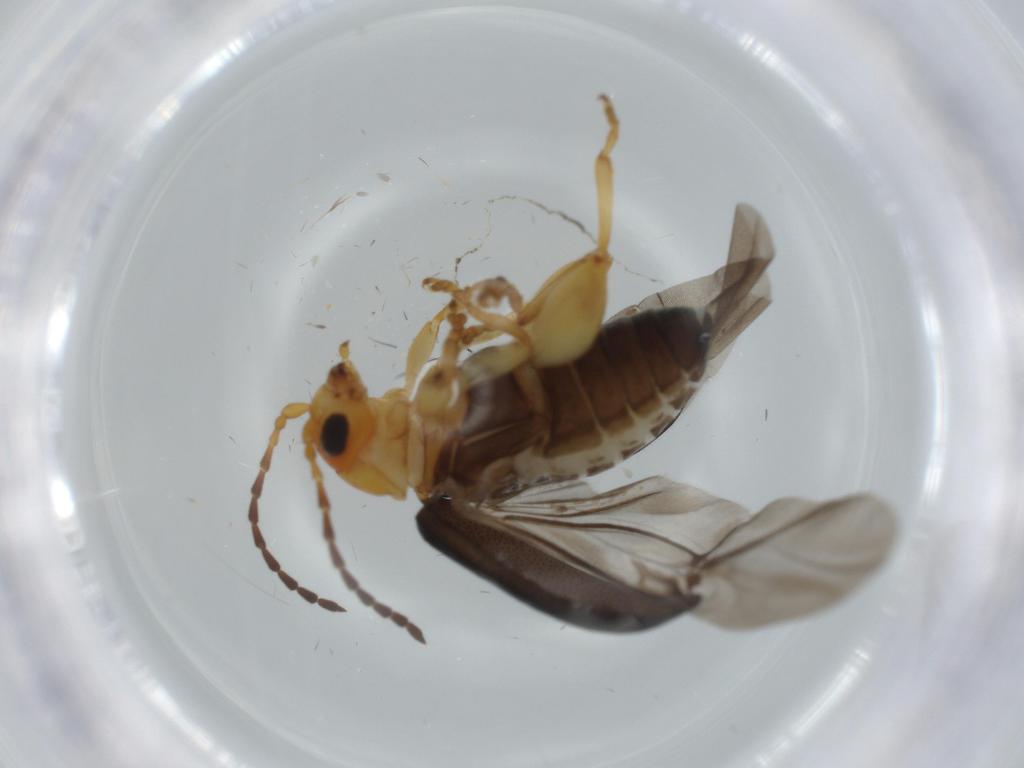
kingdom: Animalia
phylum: Arthropoda
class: Insecta
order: Coleoptera
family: Chrysomelidae
